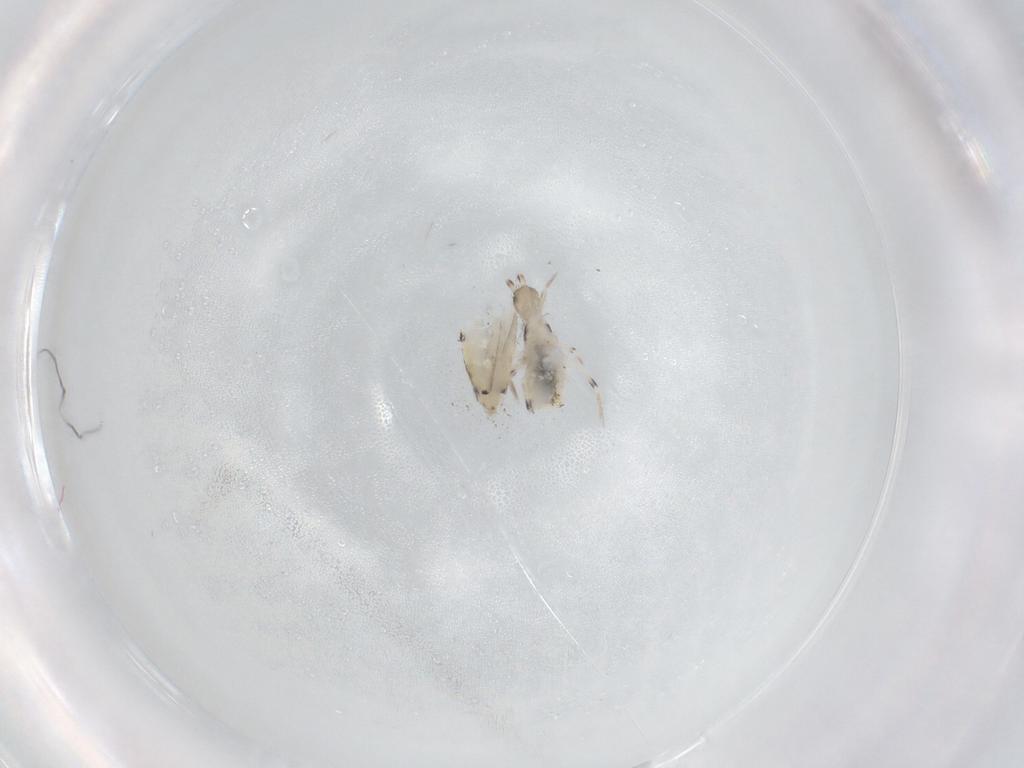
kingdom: Animalia
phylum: Arthropoda
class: Collembola
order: Entomobryomorpha
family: Entomobryidae
